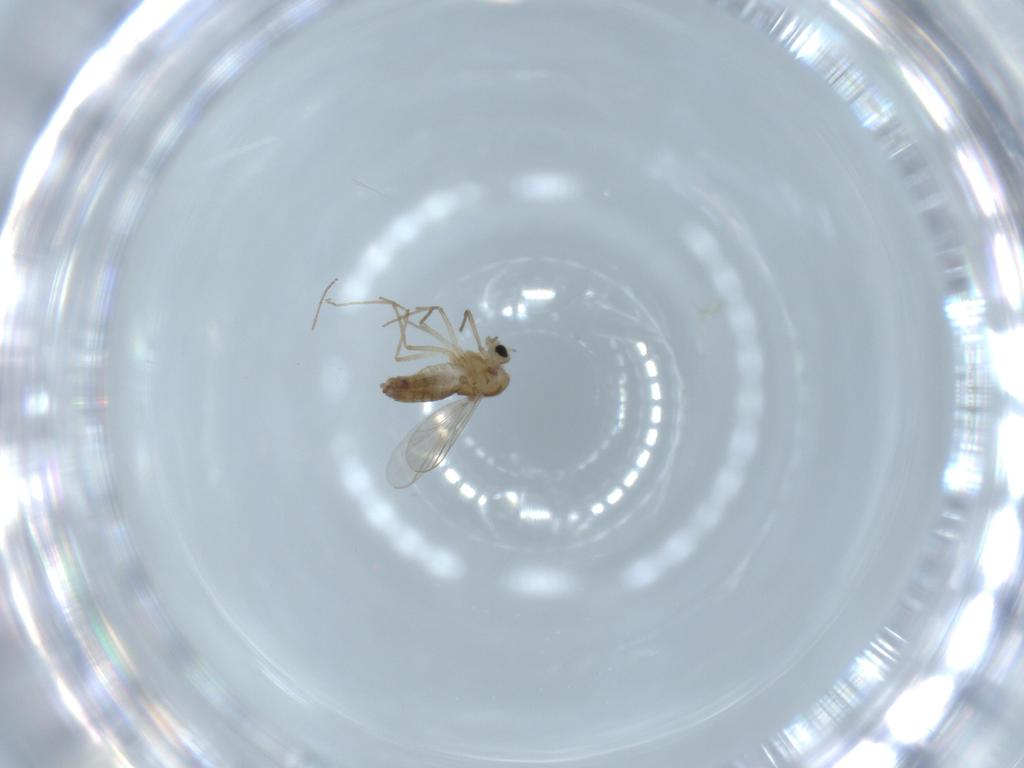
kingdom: Animalia
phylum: Arthropoda
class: Insecta
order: Diptera
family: Chironomidae
